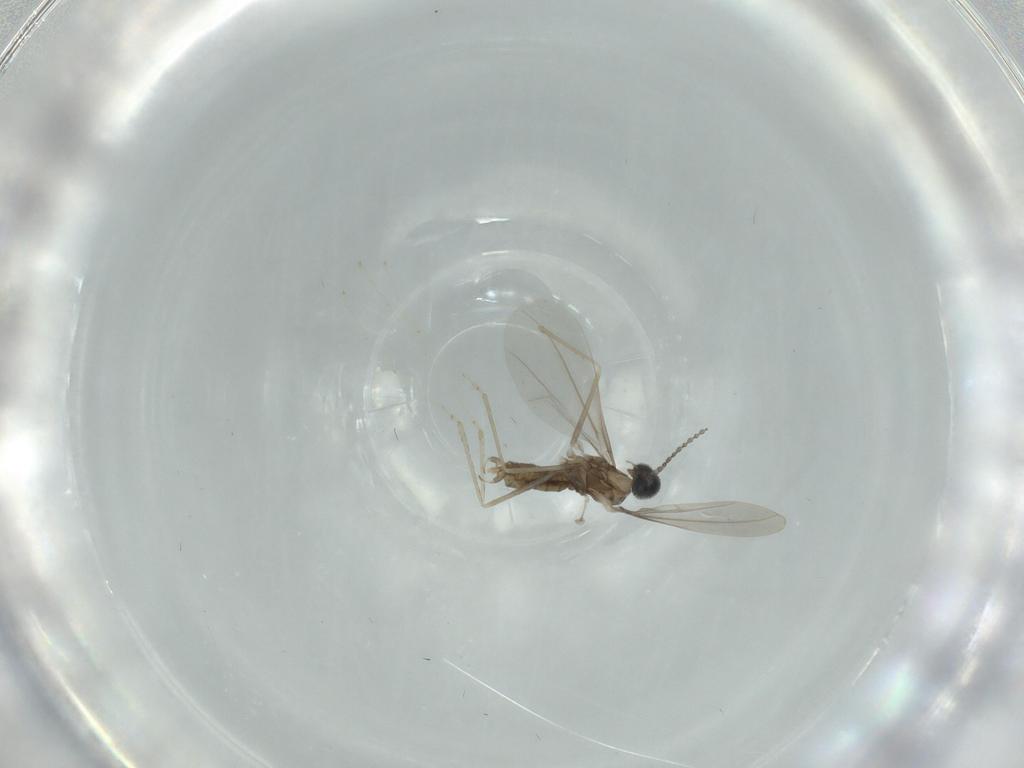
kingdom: Animalia
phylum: Arthropoda
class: Insecta
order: Diptera
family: Cecidomyiidae
